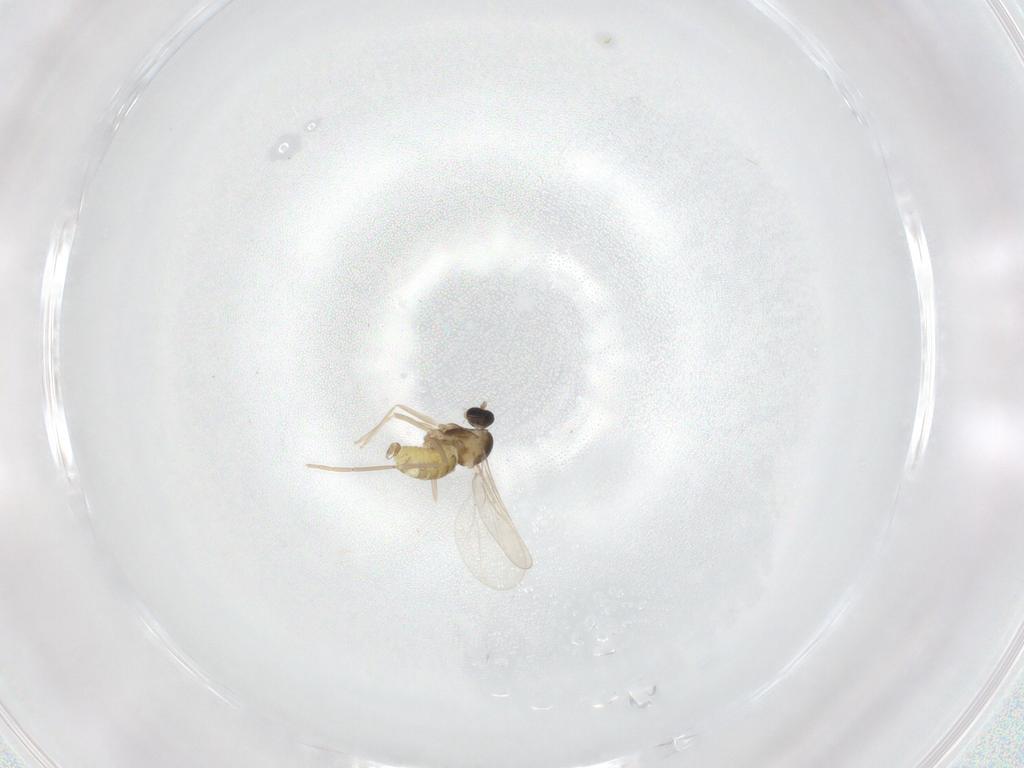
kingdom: Animalia
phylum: Arthropoda
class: Insecta
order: Diptera
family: Cecidomyiidae
